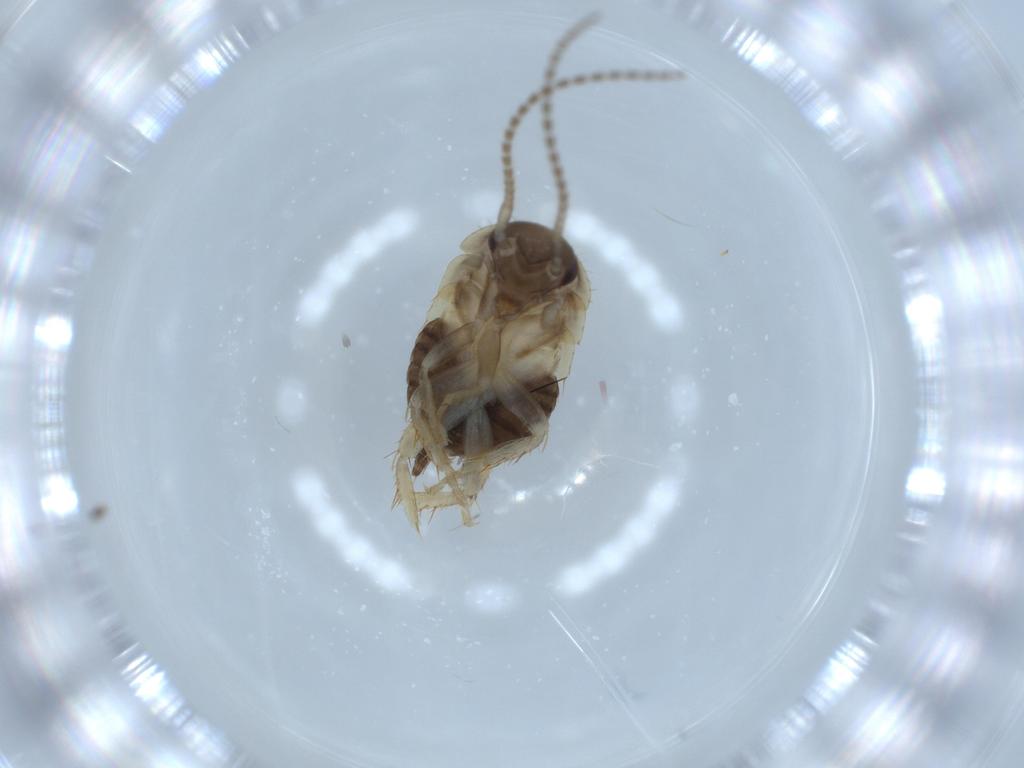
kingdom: Animalia
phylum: Arthropoda
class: Insecta
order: Blattodea
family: Ectobiidae
